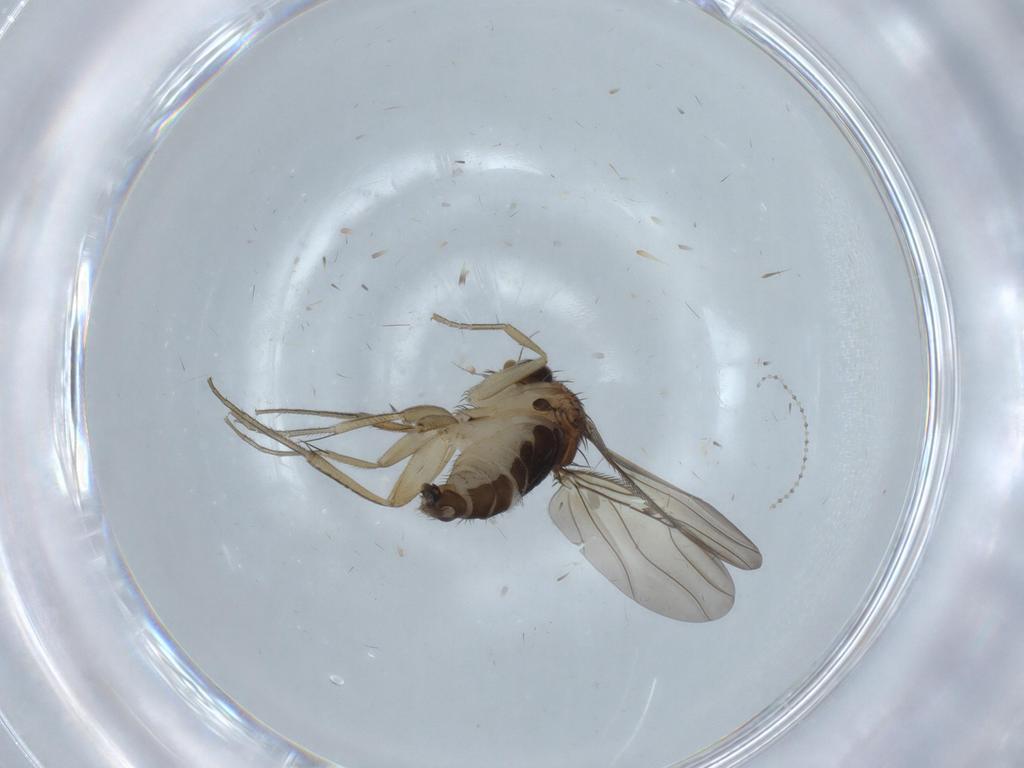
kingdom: Animalia
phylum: Arthropoda
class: Insecta
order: Diptera
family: Phoridae
